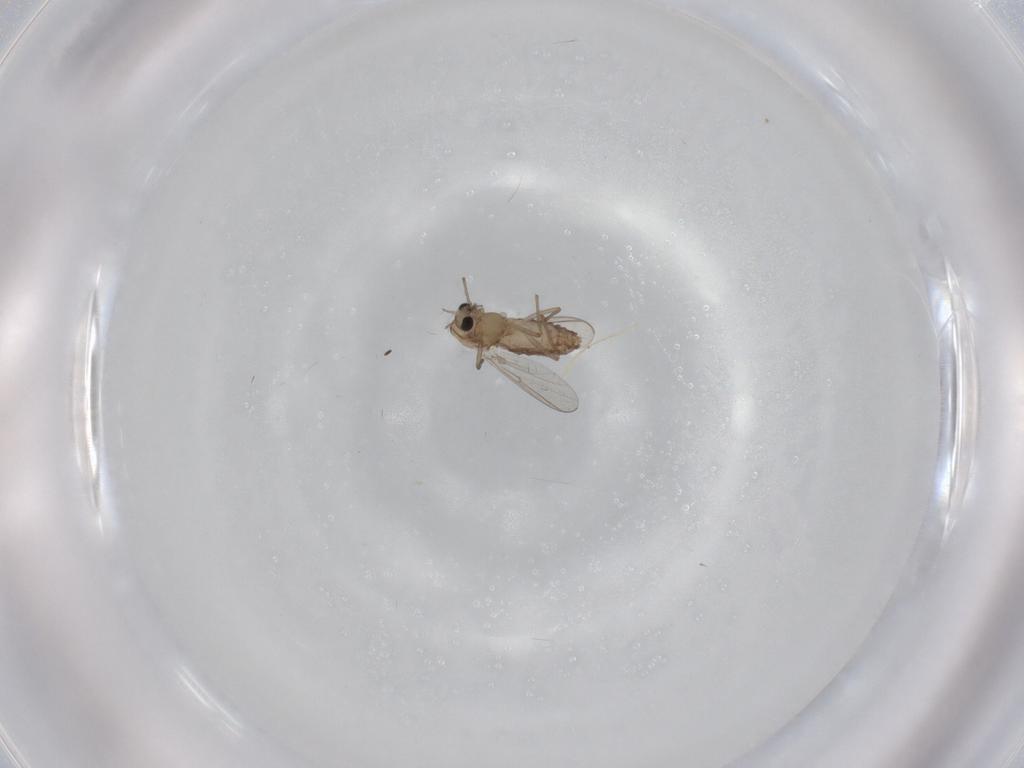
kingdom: Animalia
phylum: Arthropoda
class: Insecta
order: Diptera
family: Chironomidae
